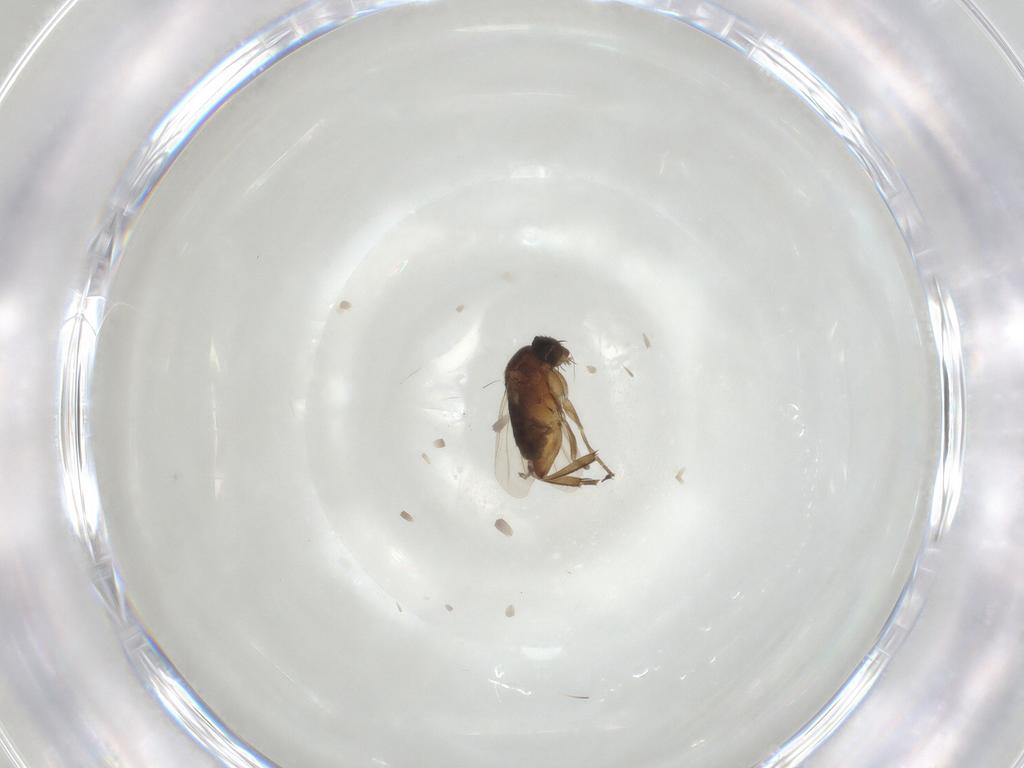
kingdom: Animalia
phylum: Arthropoda
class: Insecta
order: Diptera
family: Phoridae
